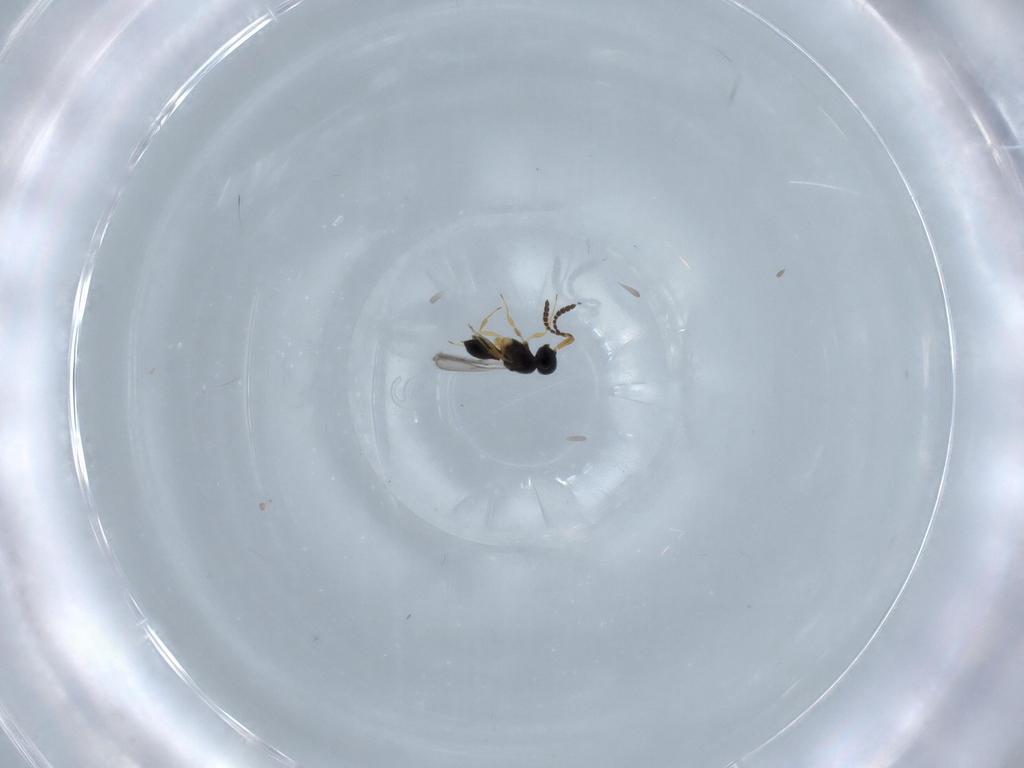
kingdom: Animalia
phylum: Arthropoda
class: Insecta
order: Hymenoptera
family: Scelionidae
